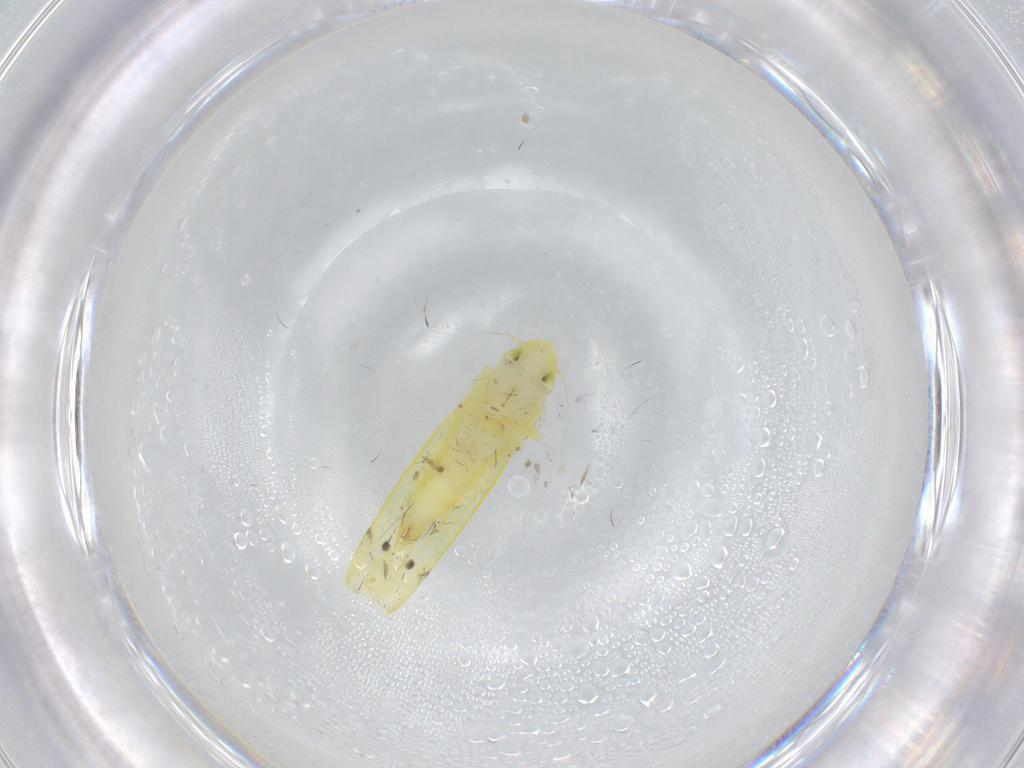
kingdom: Animalia
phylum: Arthropoda
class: Insecta
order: Hemiptera
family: Cicadellidae
